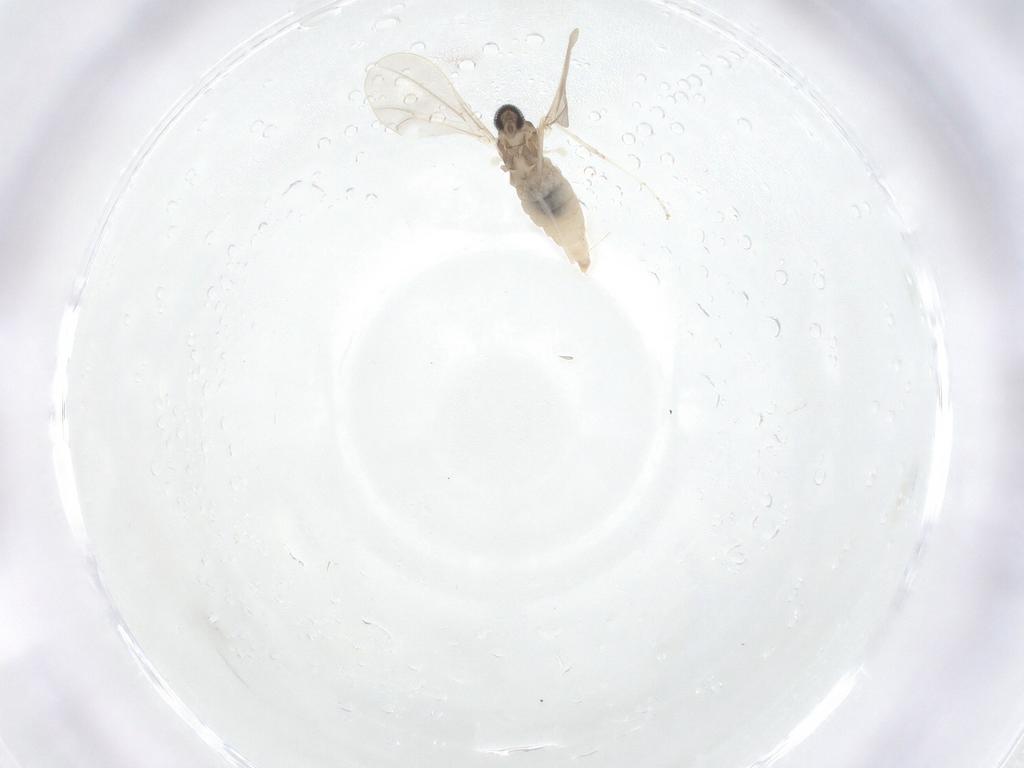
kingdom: Animalia
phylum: Arthropoda
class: Insecta
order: Diptera
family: Cecidomyiidae
